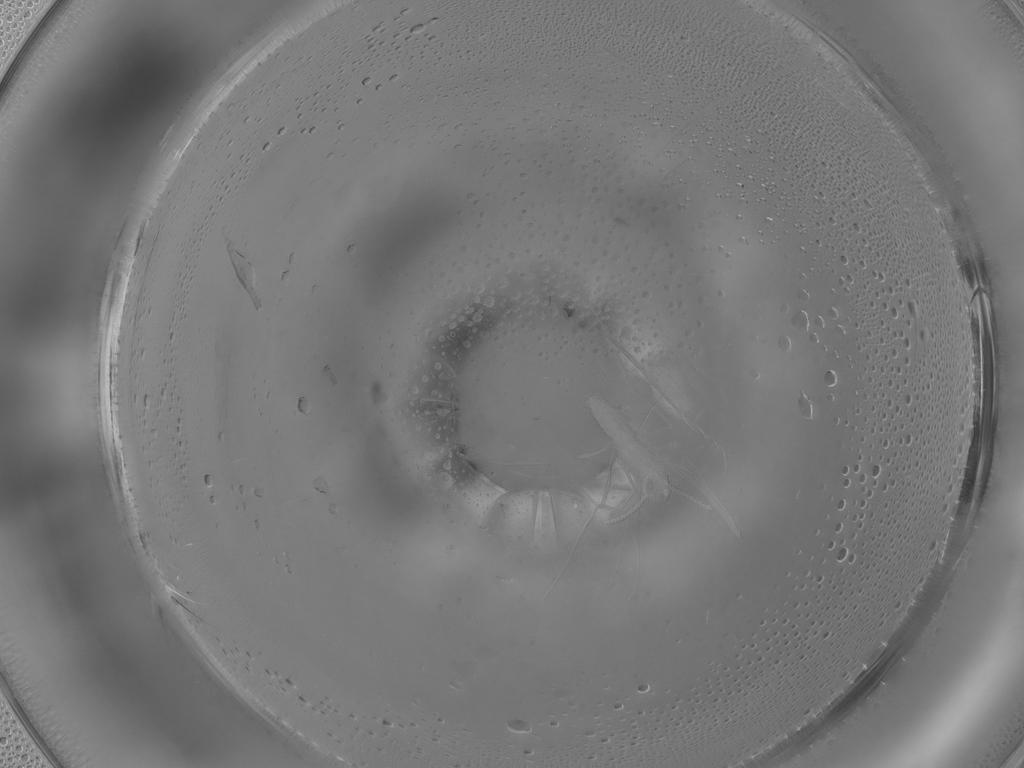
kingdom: Animalia
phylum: Arthropoda
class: Insecta
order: Diptera
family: Cecidomyiidae
